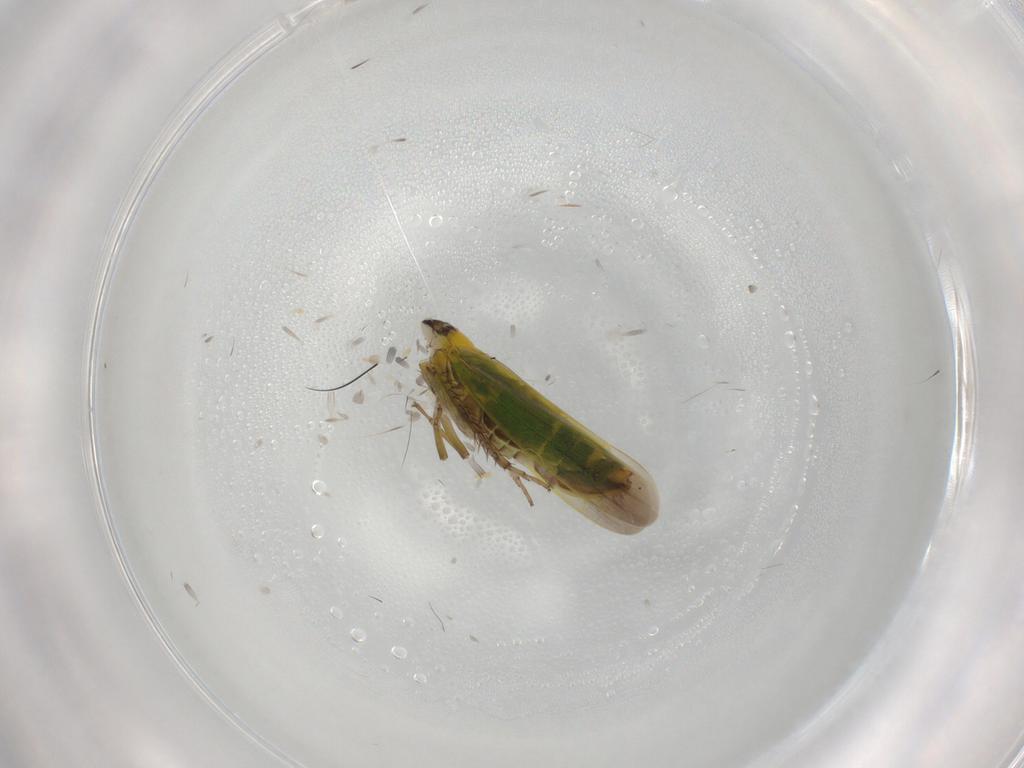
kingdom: Animalia
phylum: Arthropoda
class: Insecta
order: Hemiptera
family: Cicadellidae
